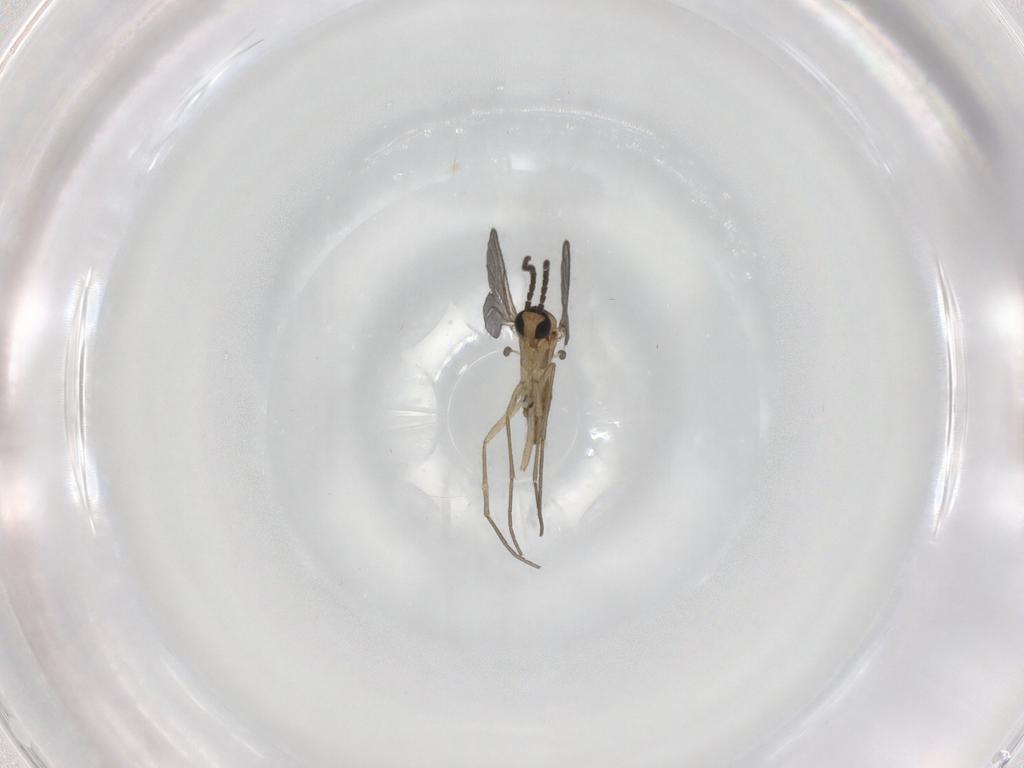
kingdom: Animalia
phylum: Arthropoda
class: Insecta
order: Diptera
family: Sciaridae
